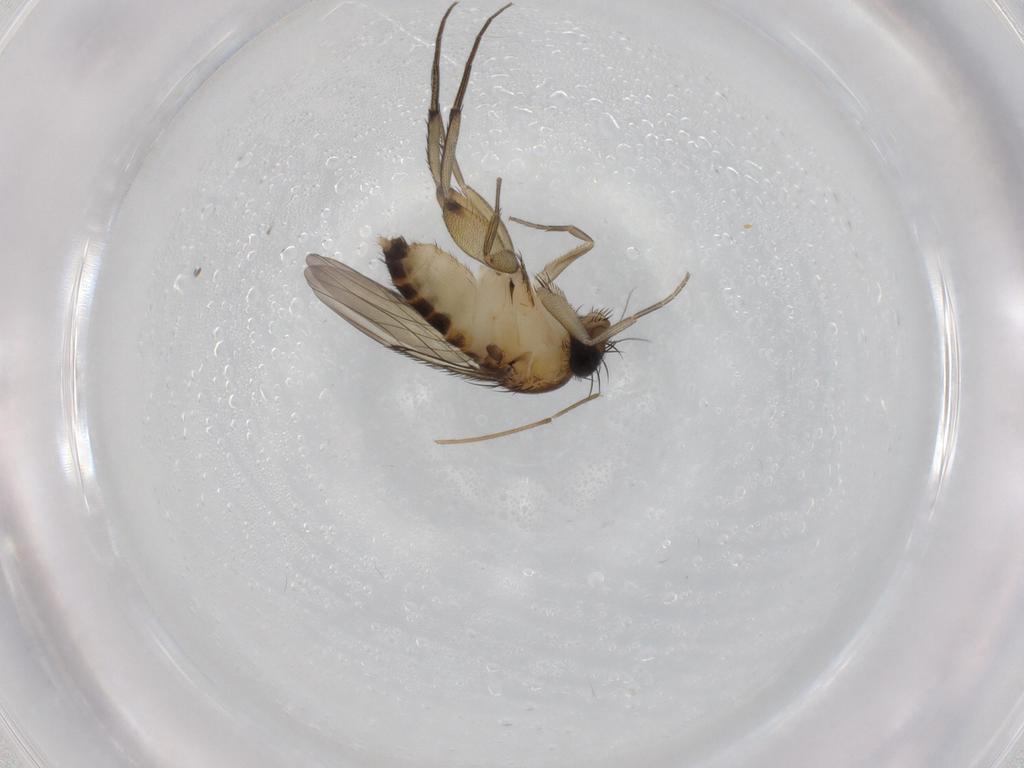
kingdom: Animalia
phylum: Arthropoda
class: Insecta
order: Diptera
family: Phoridae
